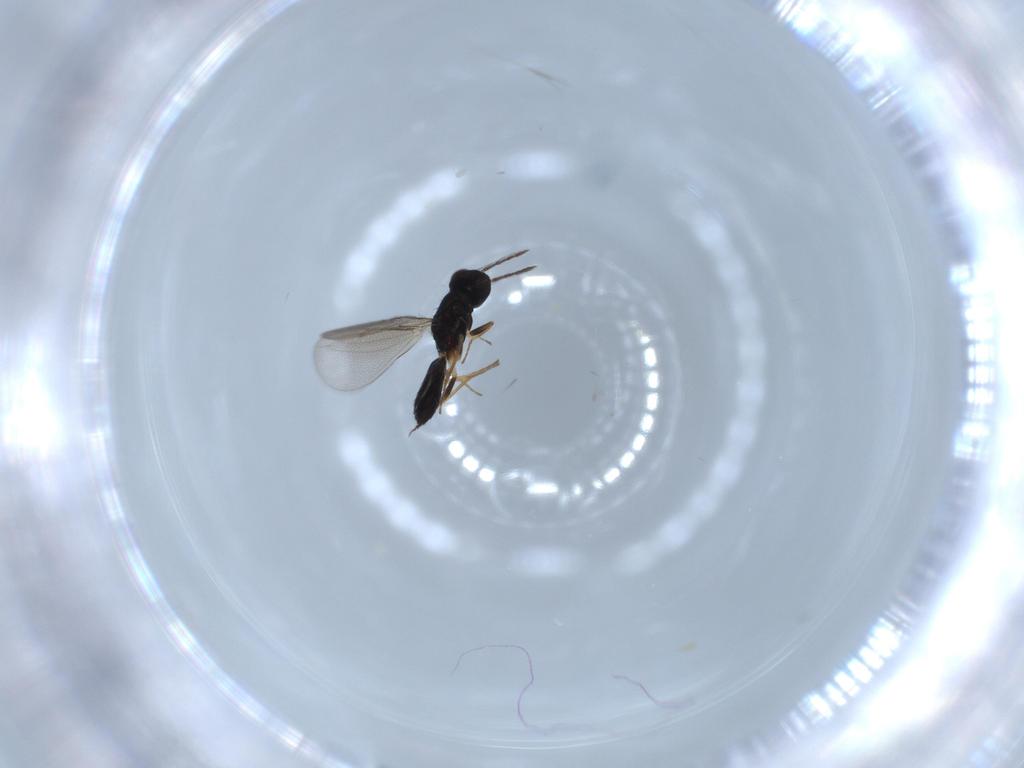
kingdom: Animalia
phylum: Arthropoda
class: Insecta
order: Hymenoptera
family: Eulophidae
